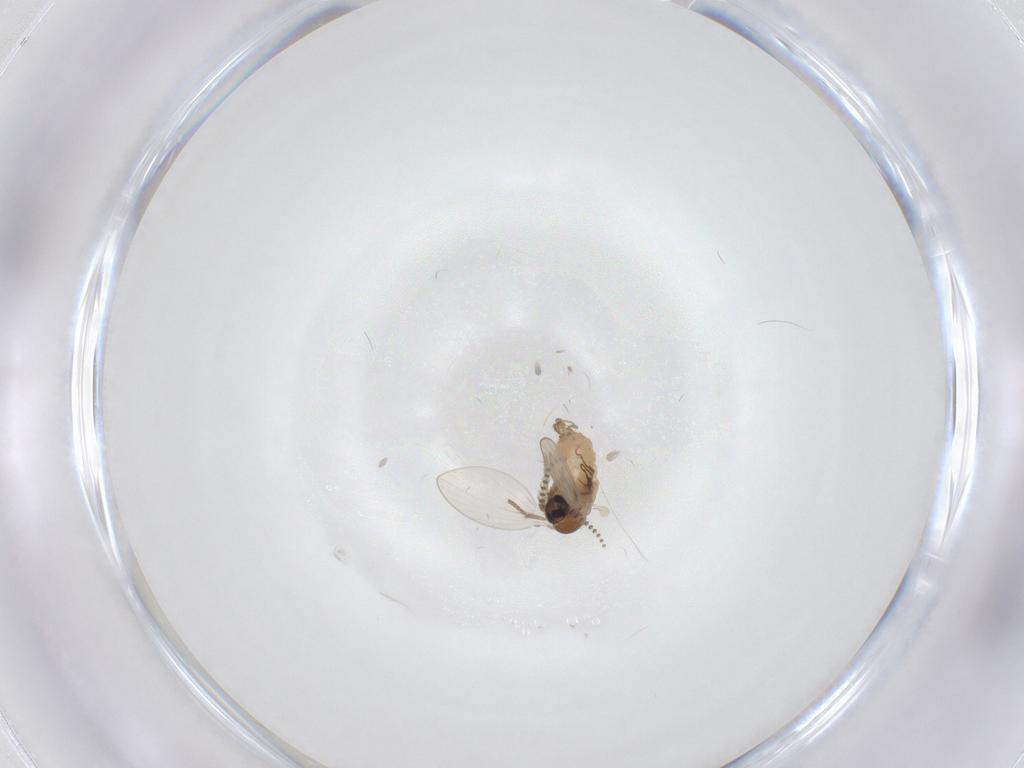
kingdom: Animalia
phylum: Arthropoda
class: Insecta
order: Diptera
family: Psychodidae
